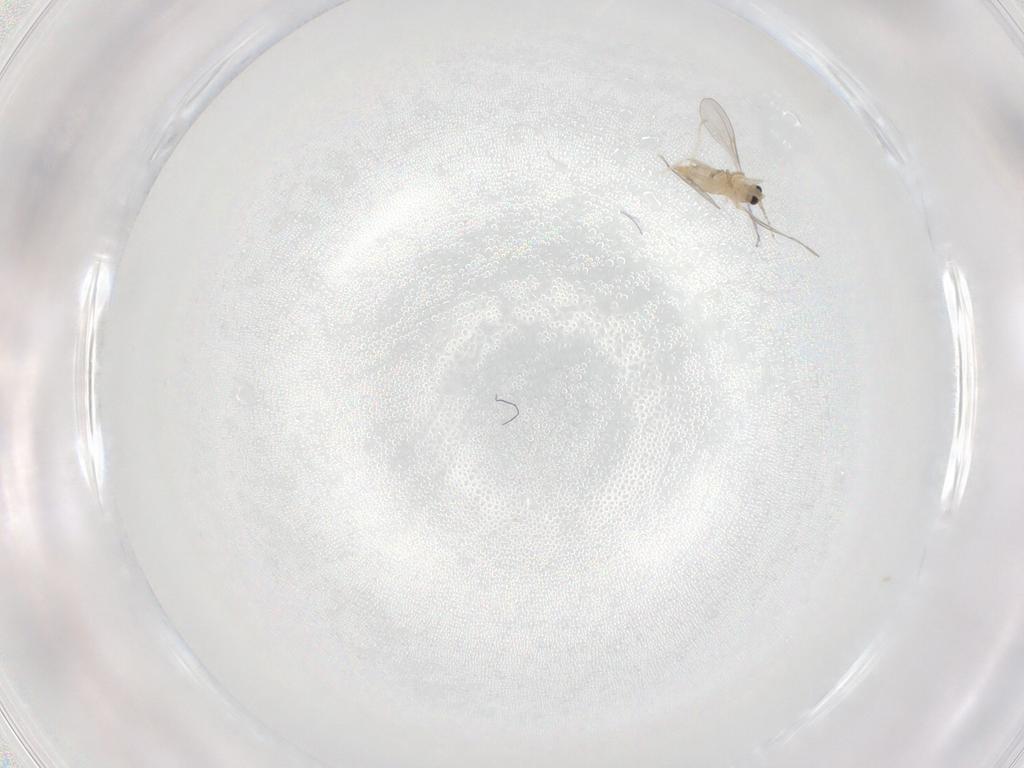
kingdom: Animalia
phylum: Arthropoda
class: Insecta
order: Diptera
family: Cecidomyiidae
